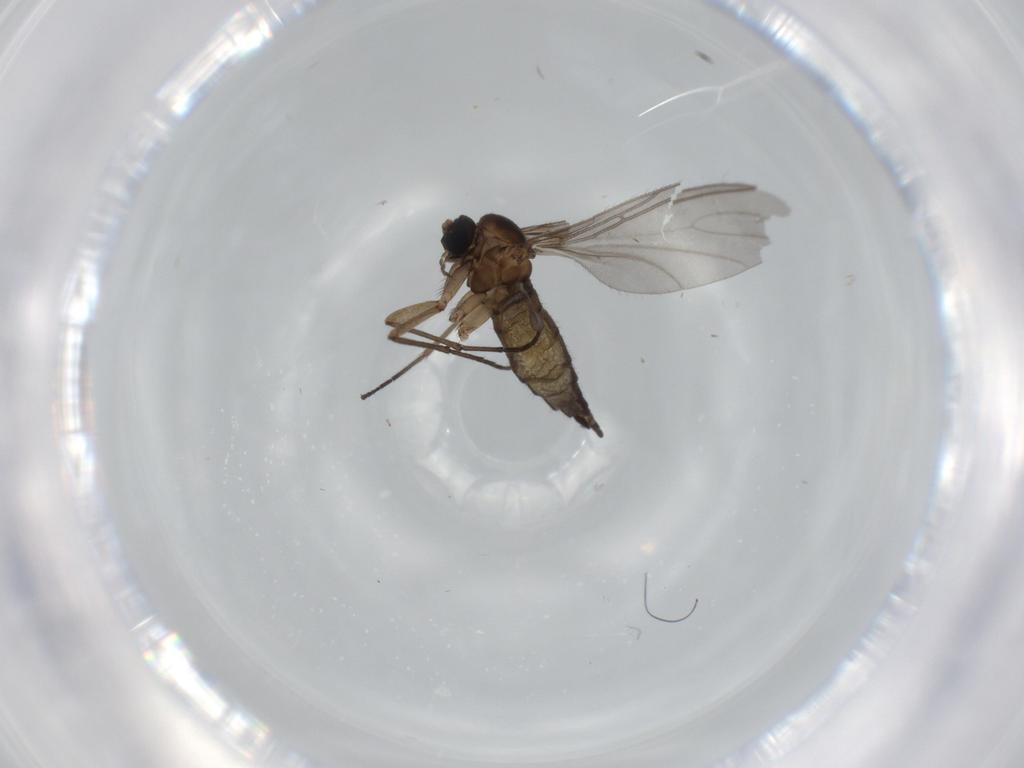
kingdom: Animalia
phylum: Arthropoda
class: Insecta
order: Diptera
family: Sciaridae
